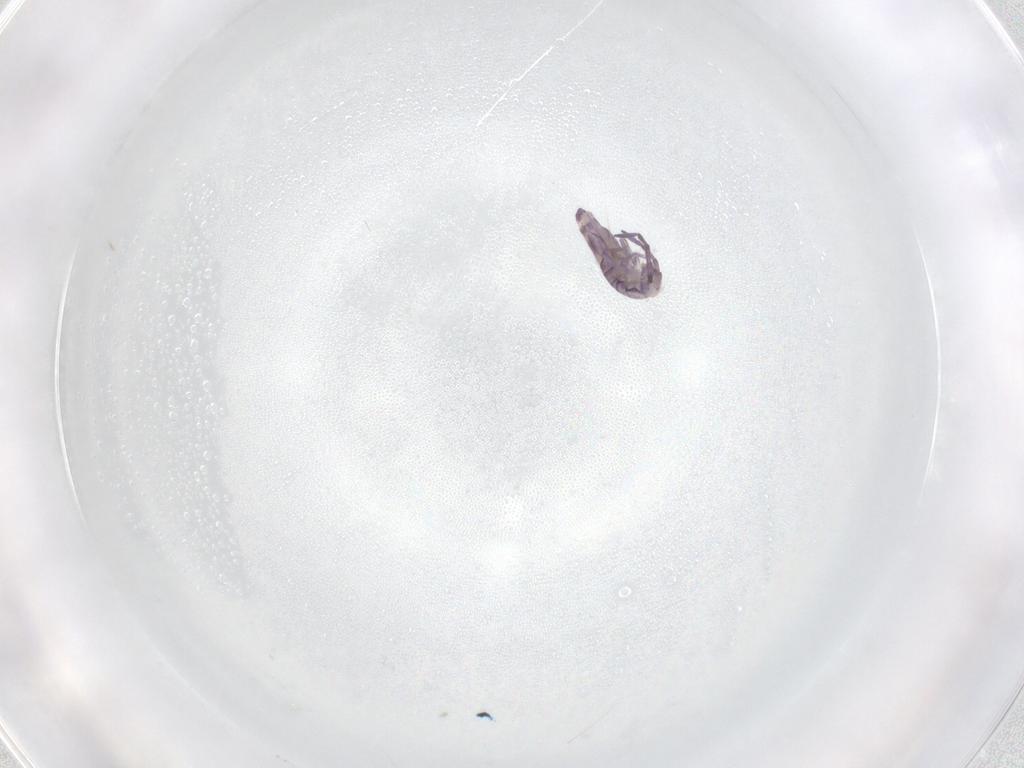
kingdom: Animalia
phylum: Arthropoda
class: Collembola
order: Entomobryomorpha
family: Entomobryidae
